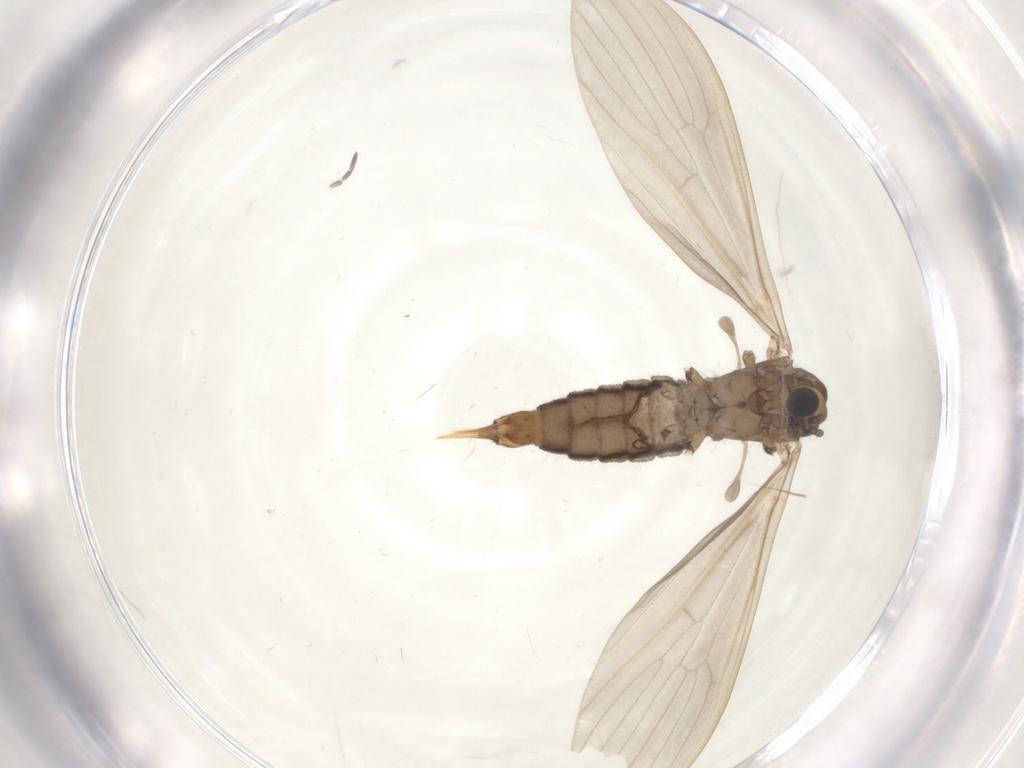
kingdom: Animalia
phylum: Arthropoda
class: Insecta
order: Diptera
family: Limoniidae
